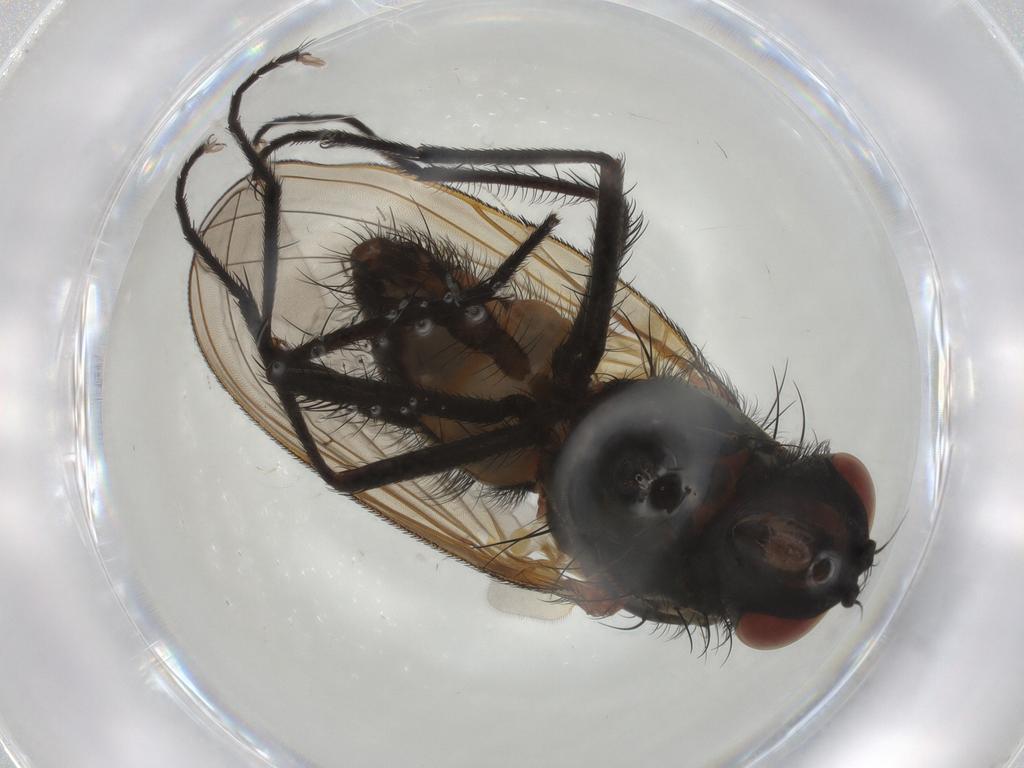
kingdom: Animalia
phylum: Arthropoda
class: Insecta
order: Diptera
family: Anthomyiidae
